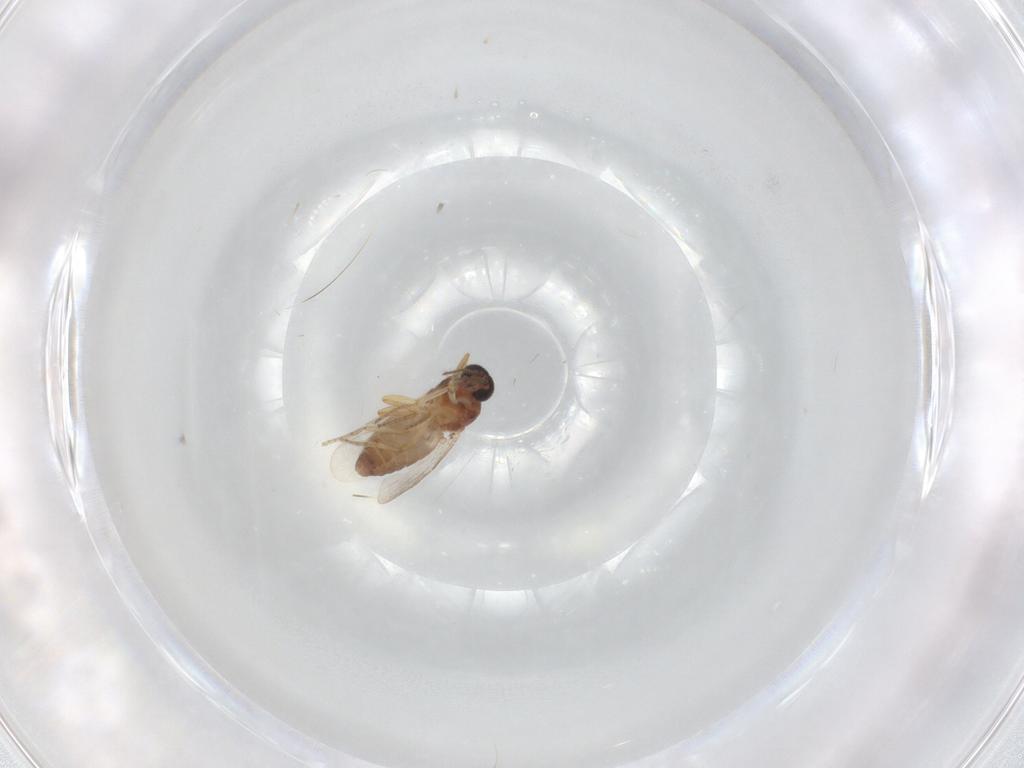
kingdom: Animalia
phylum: Arthropoda
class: Insecta
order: Diptera
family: Ceratopogonidae
